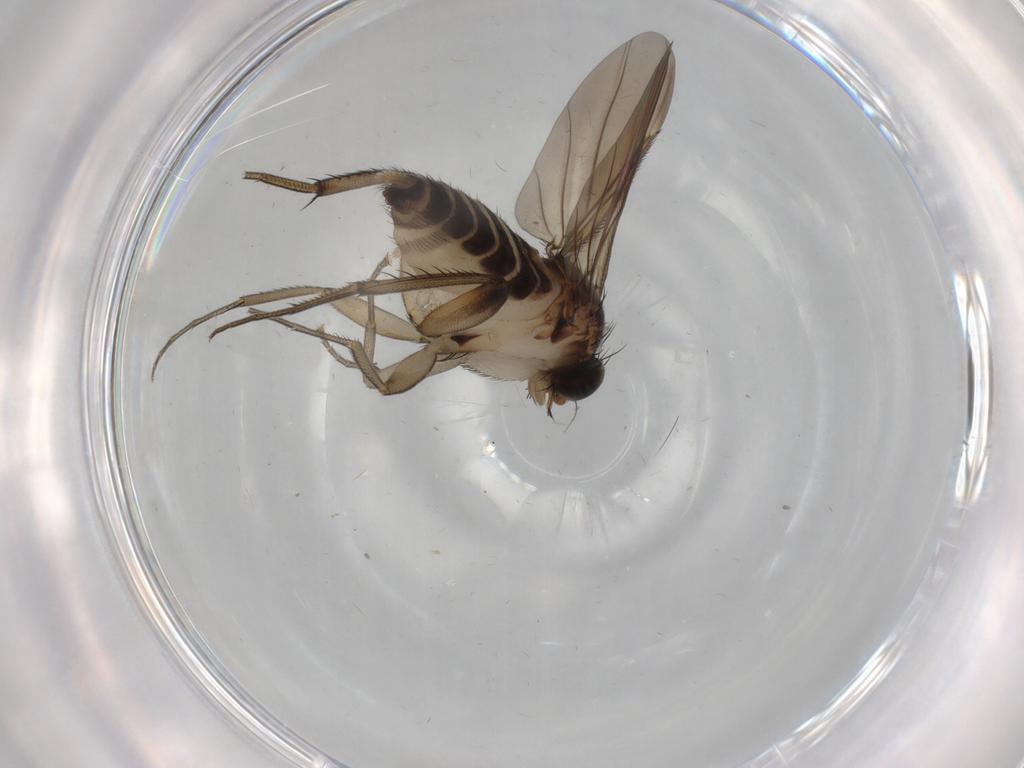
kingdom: Animalia
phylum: Arthropoda
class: Insecta
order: Diptera
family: Phoridae
